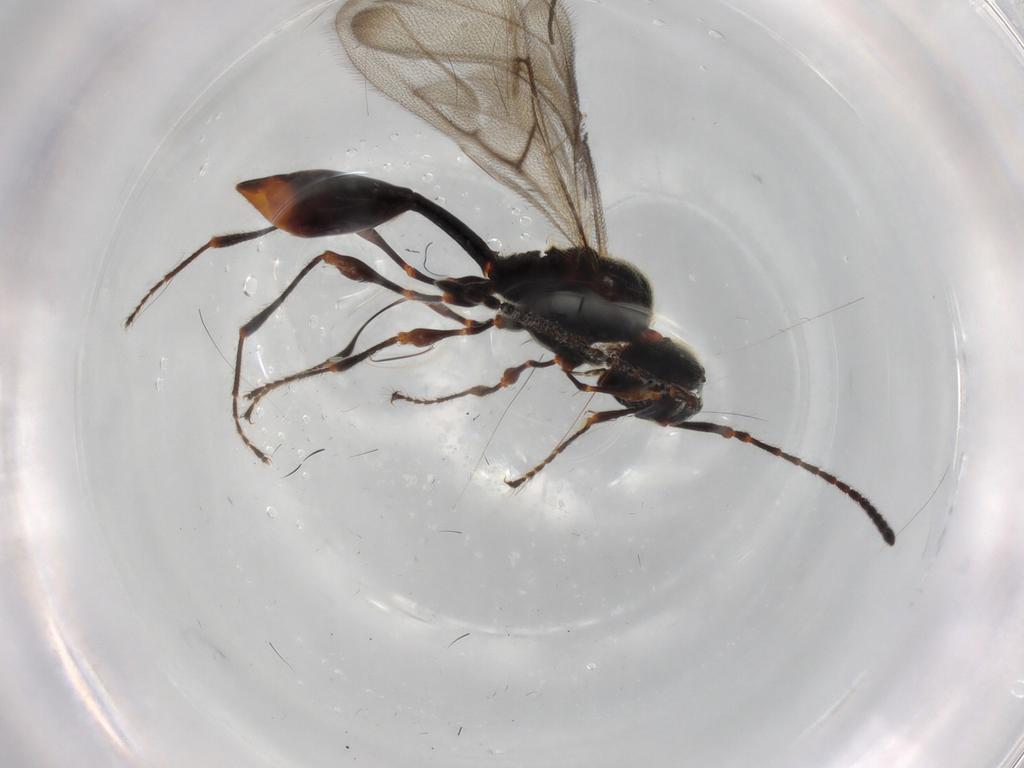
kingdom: Animalia
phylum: Arthropoda
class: Insecta
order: Hymenoptera
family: Diapriidae
